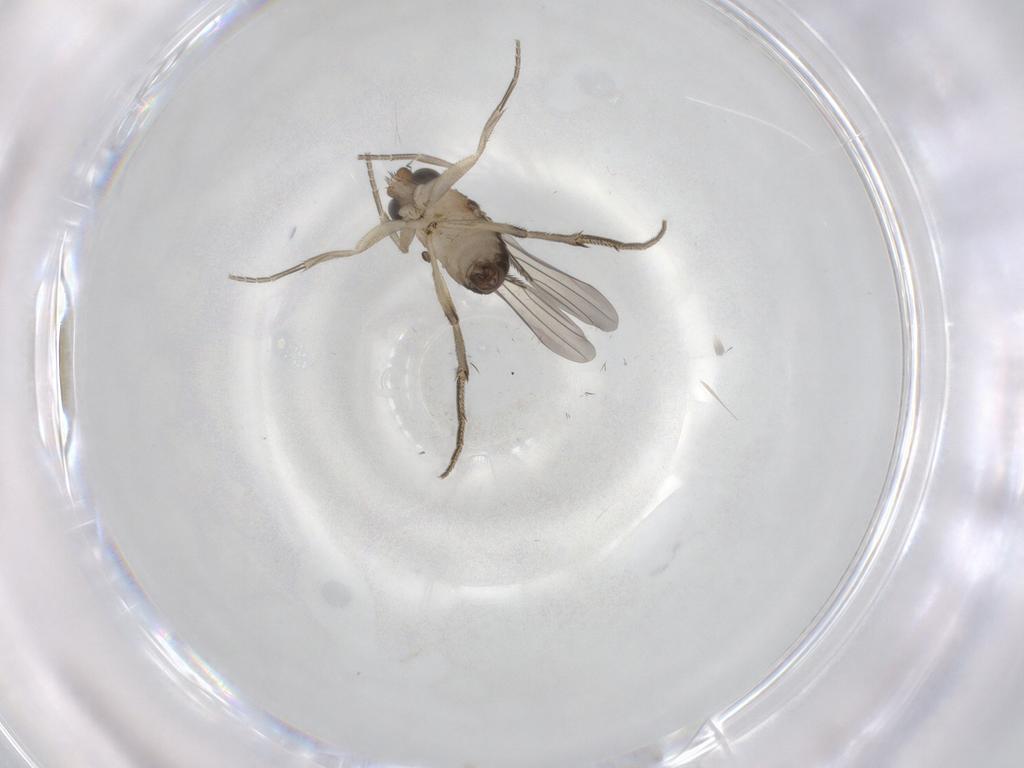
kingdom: Animalia
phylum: Arthropoda
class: Insecta
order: Diptera
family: Phoridae
